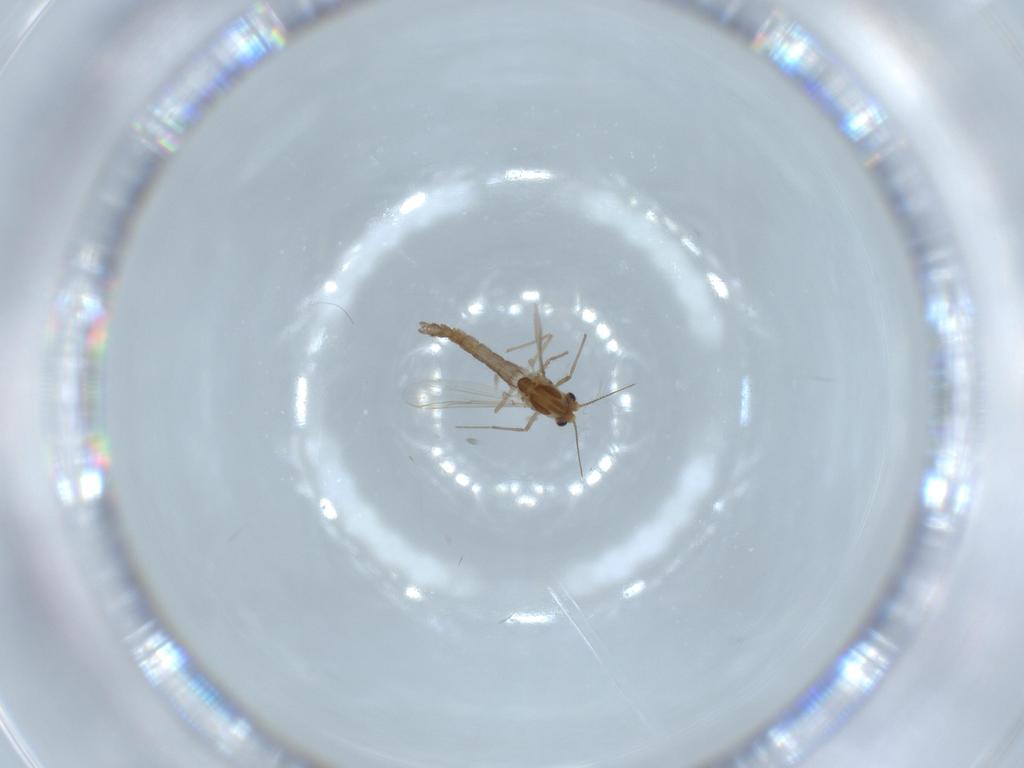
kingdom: Animalia
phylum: Arthropoda
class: Insecta
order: Diptera
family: Chironomidae
